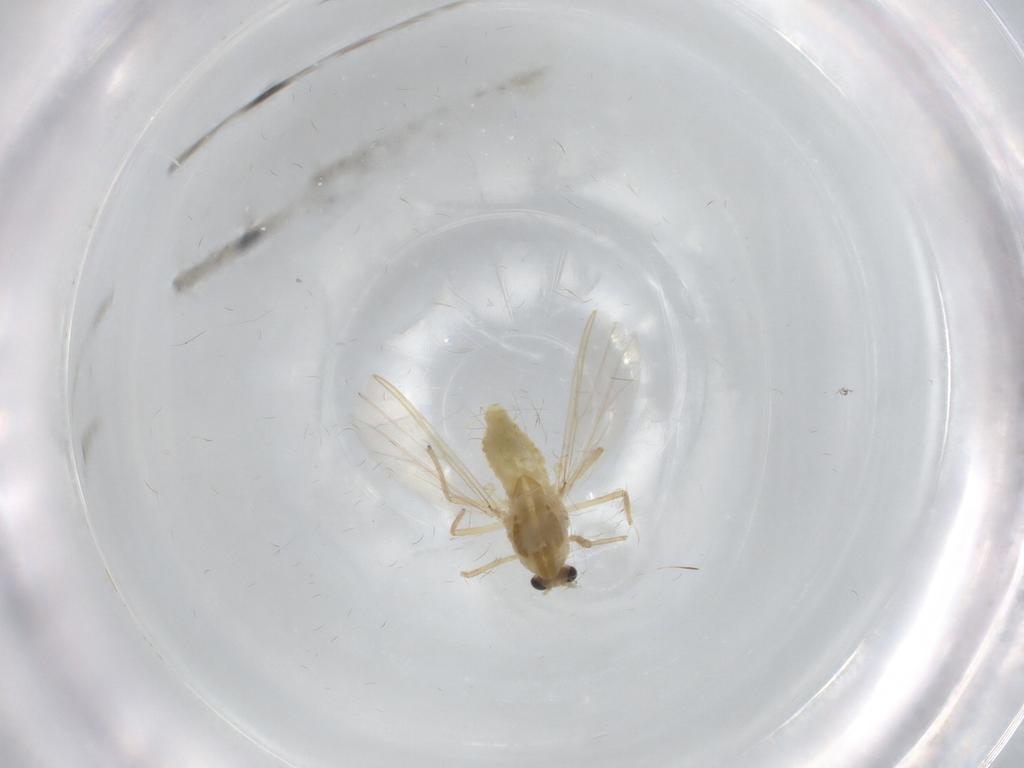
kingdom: Animalia
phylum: Arthropoda
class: Insecta
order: Diptera
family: Chironomidae
